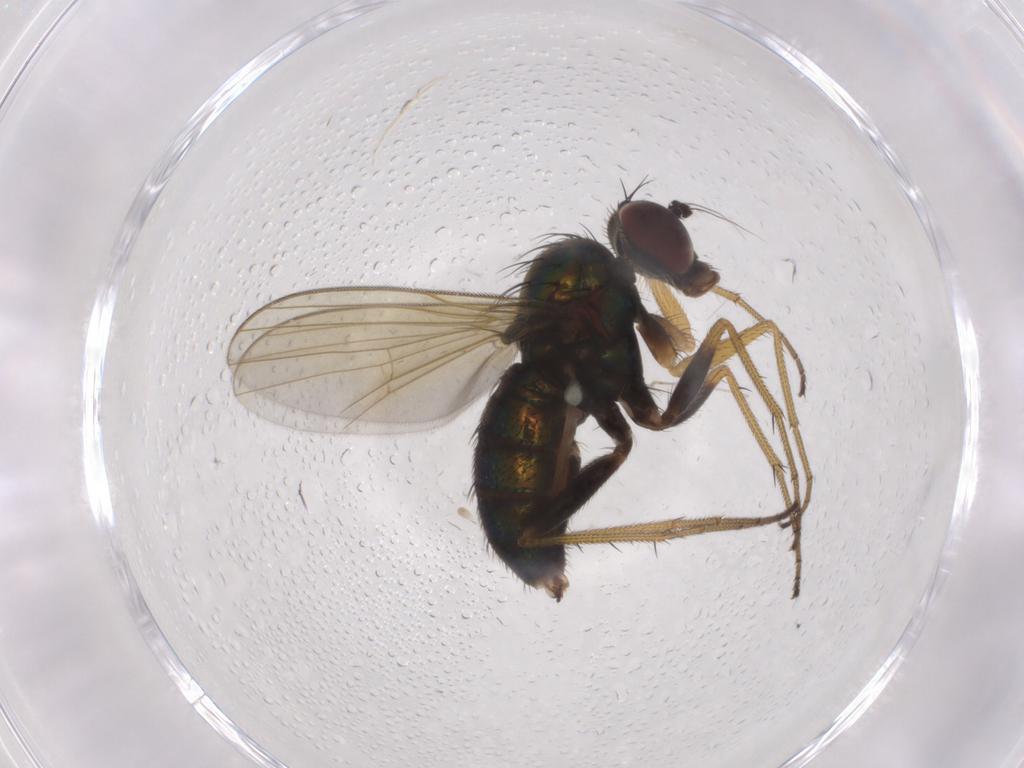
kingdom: Animalia
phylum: Arthropoda
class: Insecta
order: Diptera
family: Dolichopodidae
